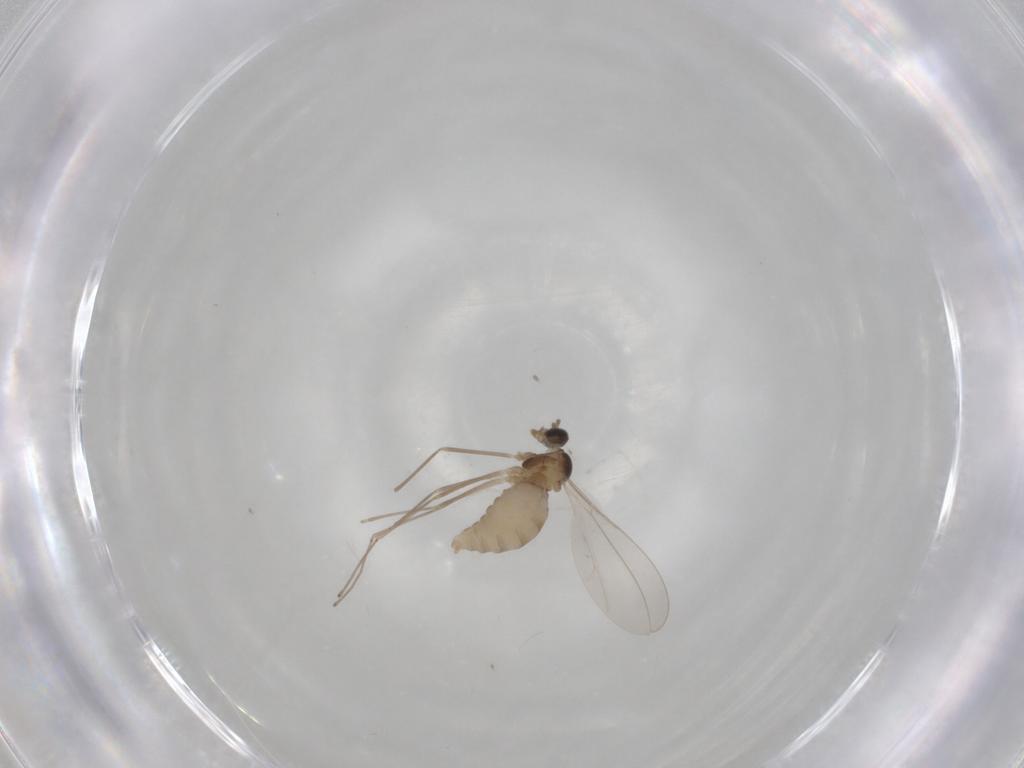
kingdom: Animalia
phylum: Arthropoda
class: Insecta
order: Diptera
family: Cecidomyiidae
